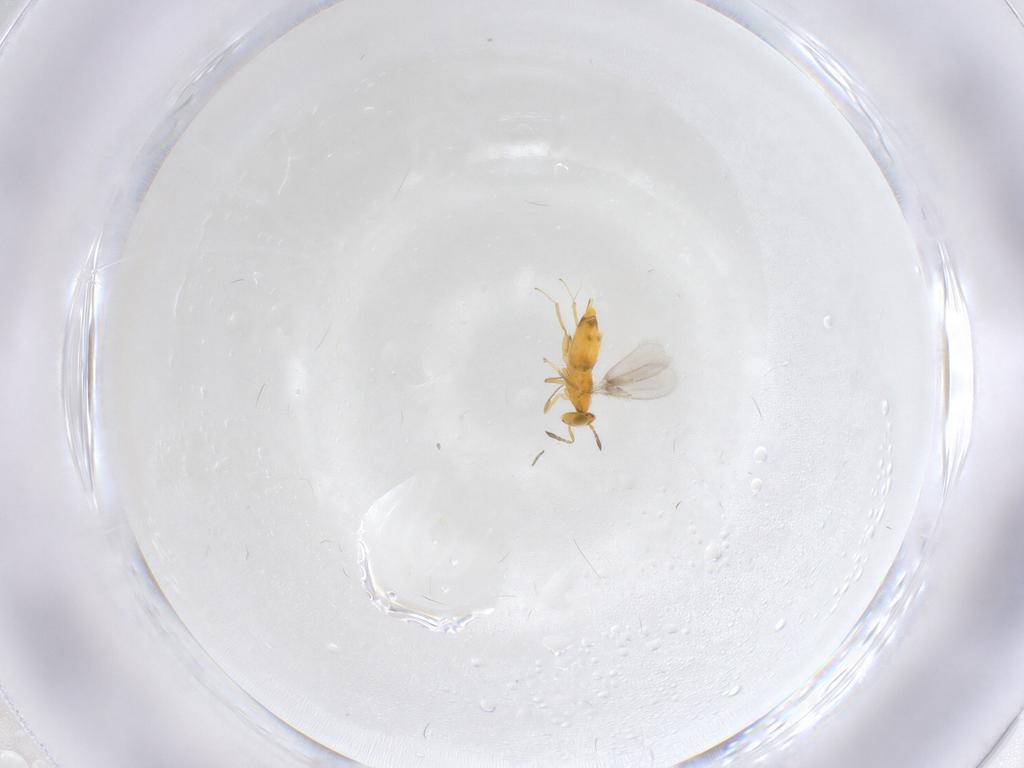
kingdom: Animalia
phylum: Arthropoda
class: Insecta
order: Hymenoptera
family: Aphelinidae
